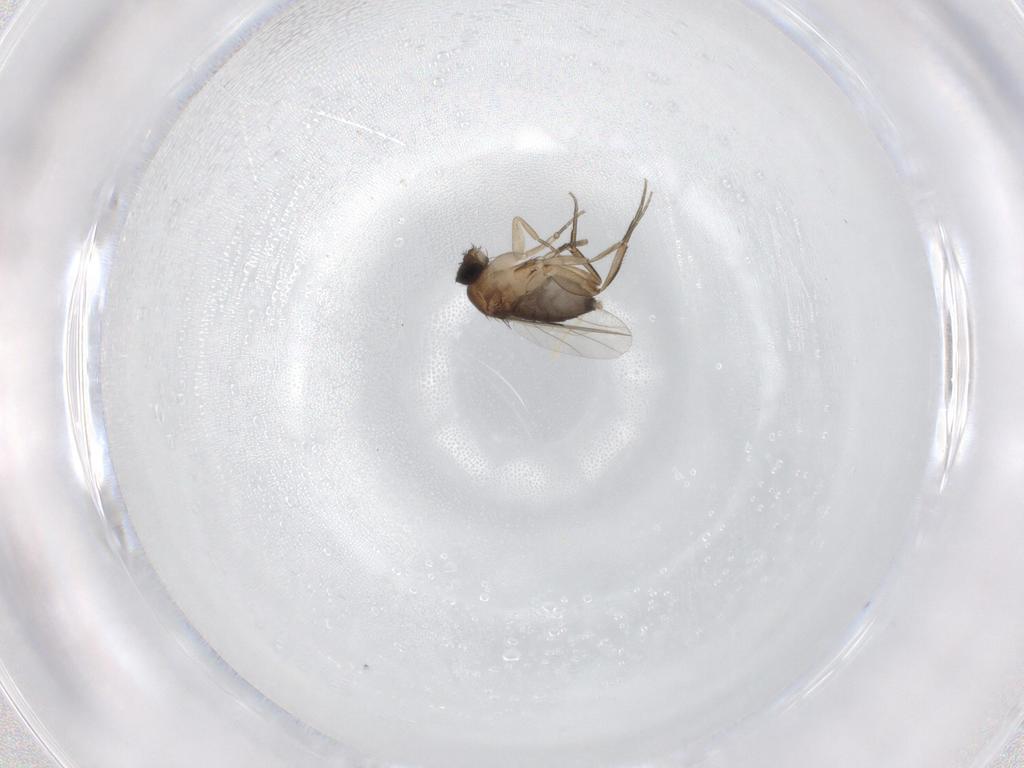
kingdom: Animalia
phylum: Arthropoda
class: Insecta
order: Diptera
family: Phoridae
